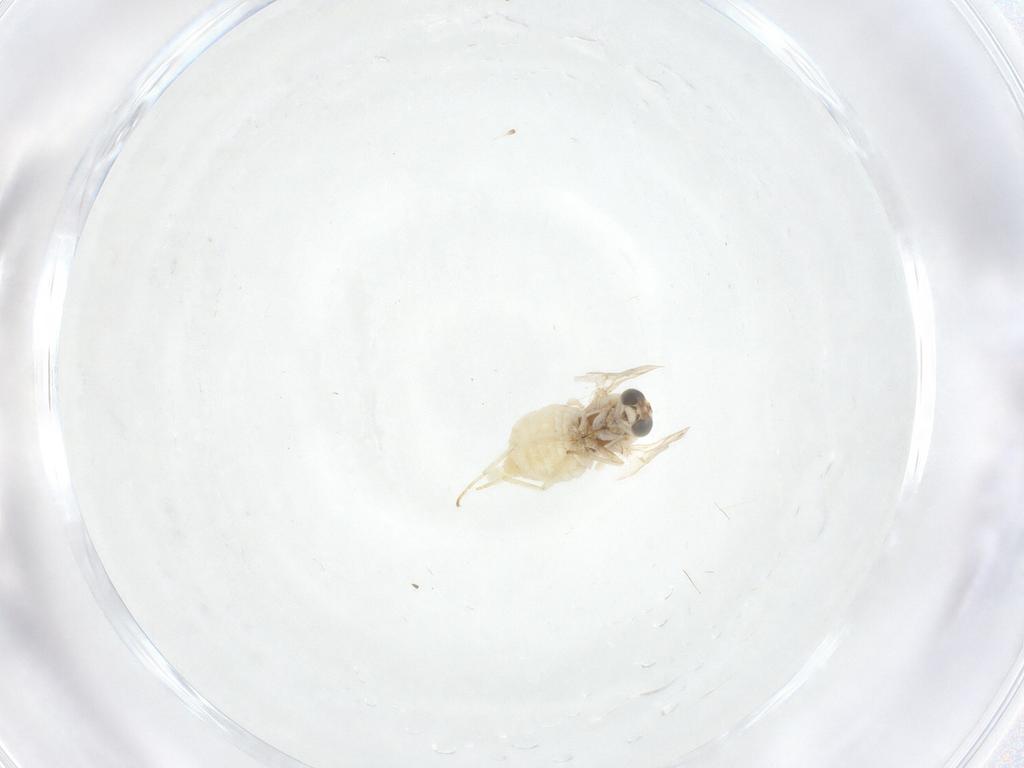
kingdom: Animalia
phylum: Arthropoda
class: Insecta
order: Diptera
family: Bombyliidae
